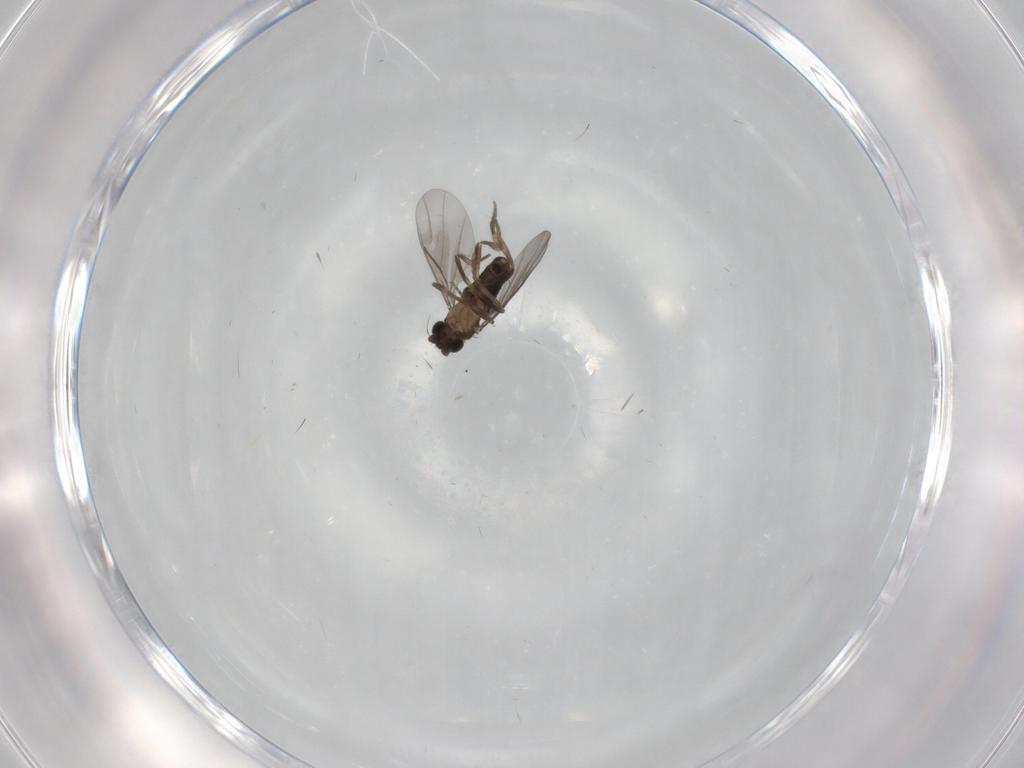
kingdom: Animalia
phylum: Arthropoda
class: Insecta
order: Diptera
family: Phoridae
